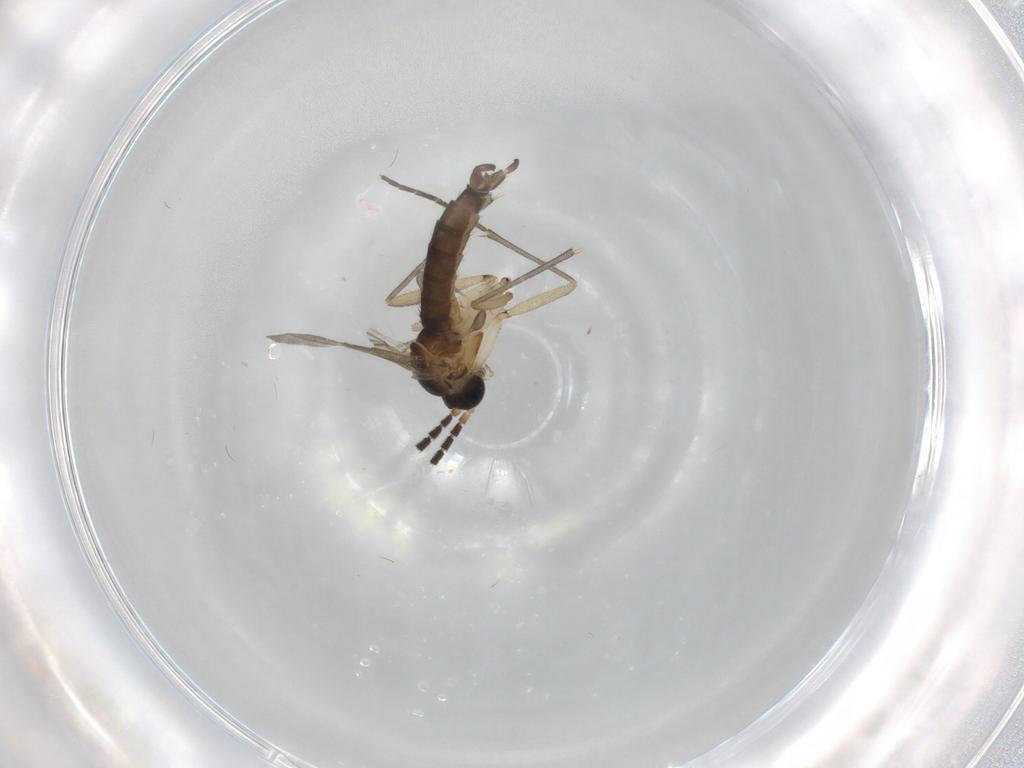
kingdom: Animalia
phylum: Arthropoda
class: Insecta
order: Diptera
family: Sciaridae
